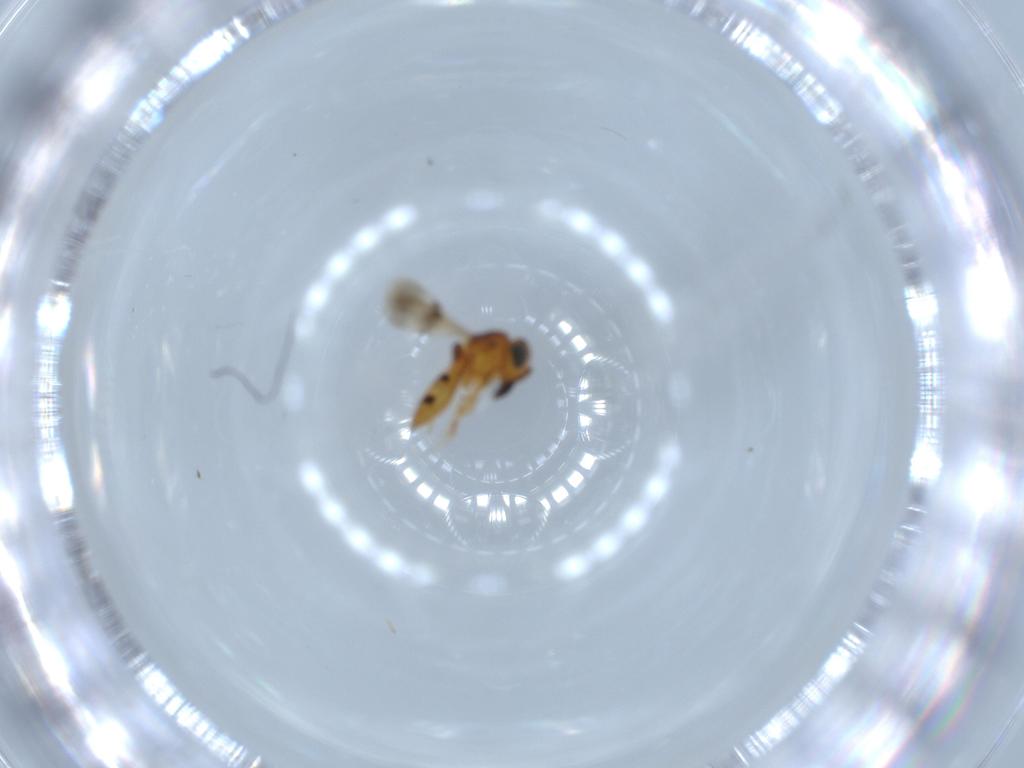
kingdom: Animalia
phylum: Arthropoda
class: Insecta
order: Hymenoptera
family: Scelionidae
